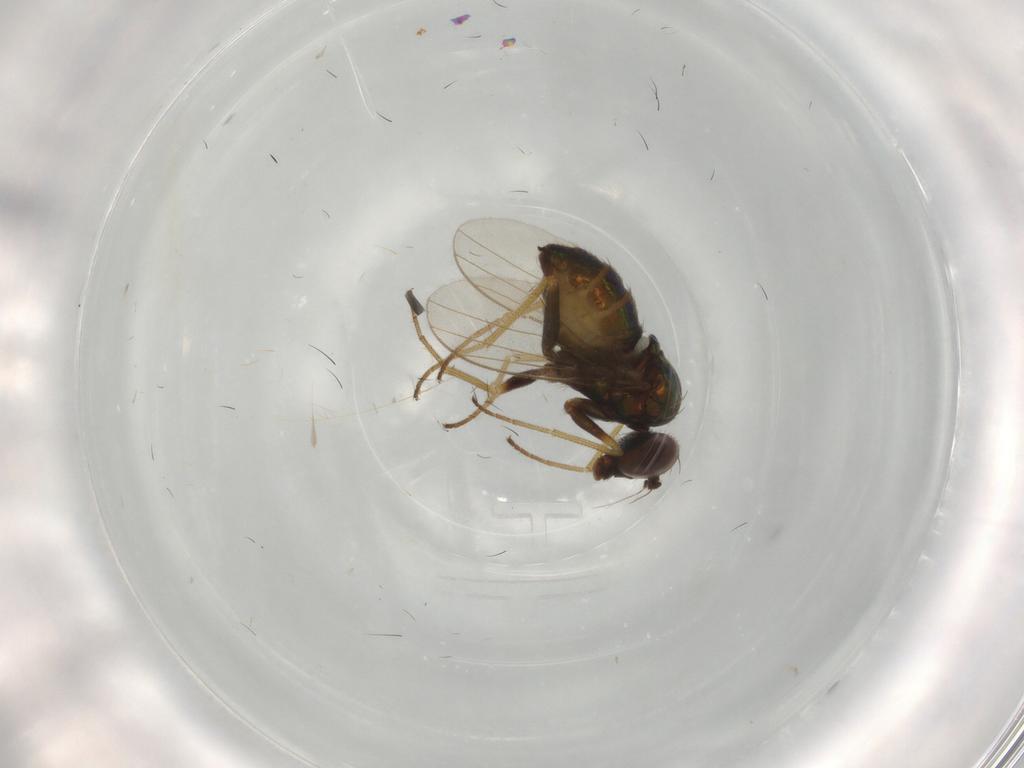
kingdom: Animalia
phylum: Arthropoda
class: Insecta
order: Diptera
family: Dolichopodidae
